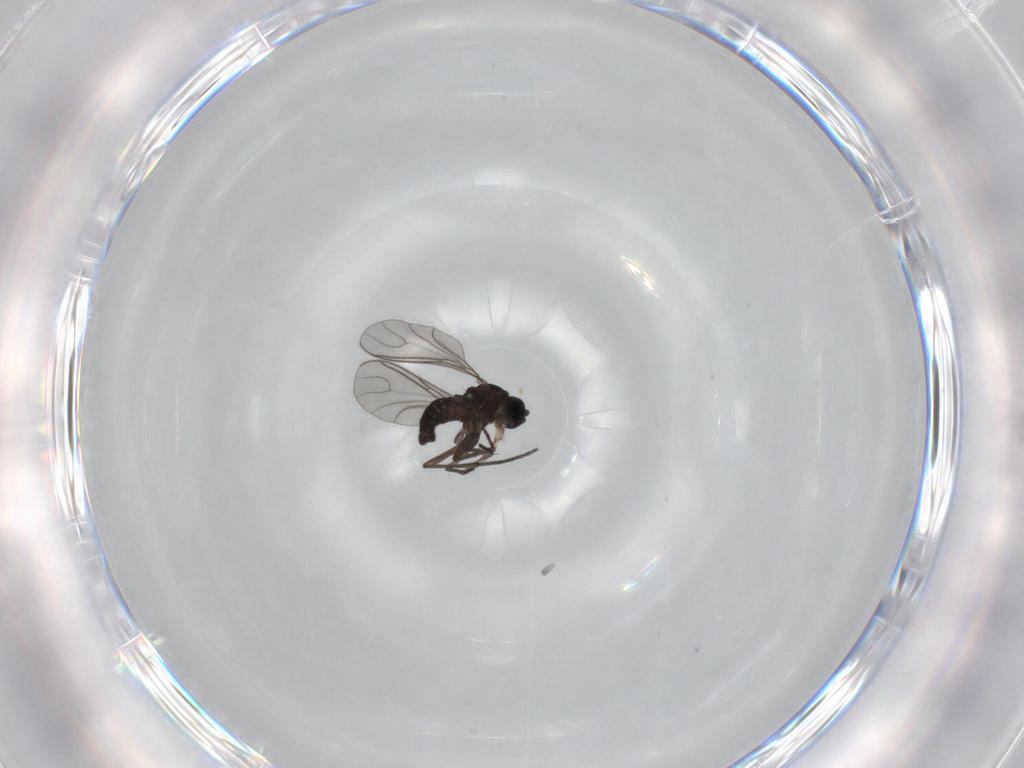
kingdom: Animalia
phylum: Arthropoda
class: Insecta
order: Diptera
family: Sciaridae
